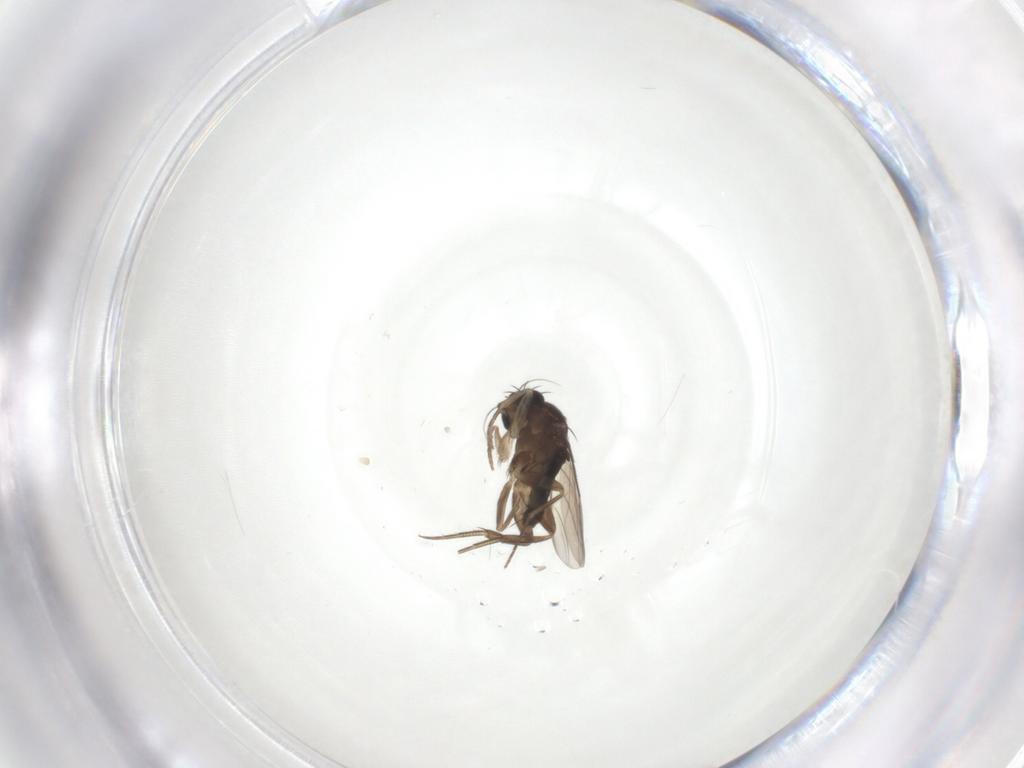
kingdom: Animalia
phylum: Arthropoda
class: Insecta
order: Diptera
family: Phoridae
